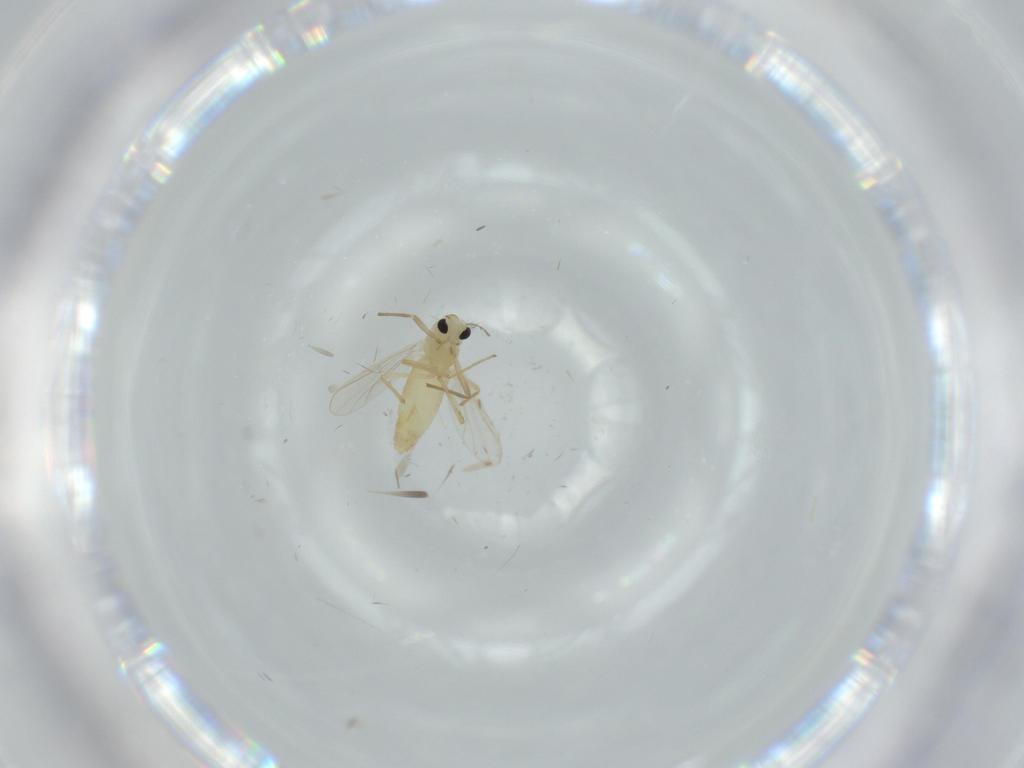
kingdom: Animalia
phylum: Arthropoda
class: Insecta
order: Diptera
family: Chironomidae
